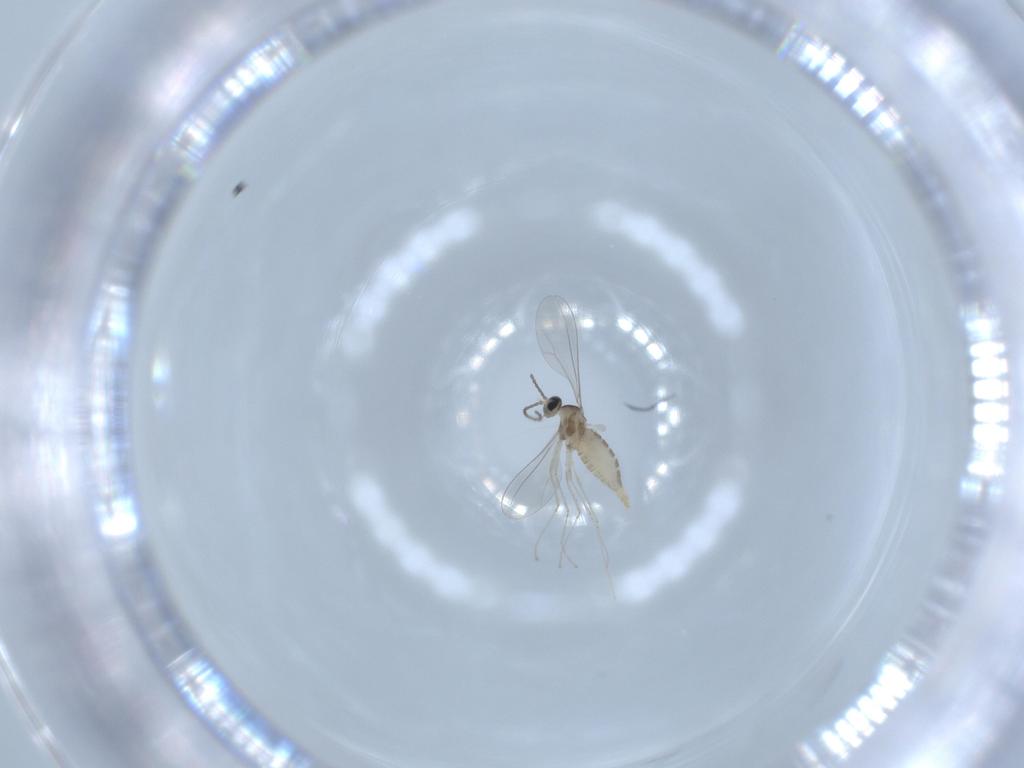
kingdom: Animalia
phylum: Arthropoda
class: Insecta
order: Diptera
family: Cecidomyiidae
